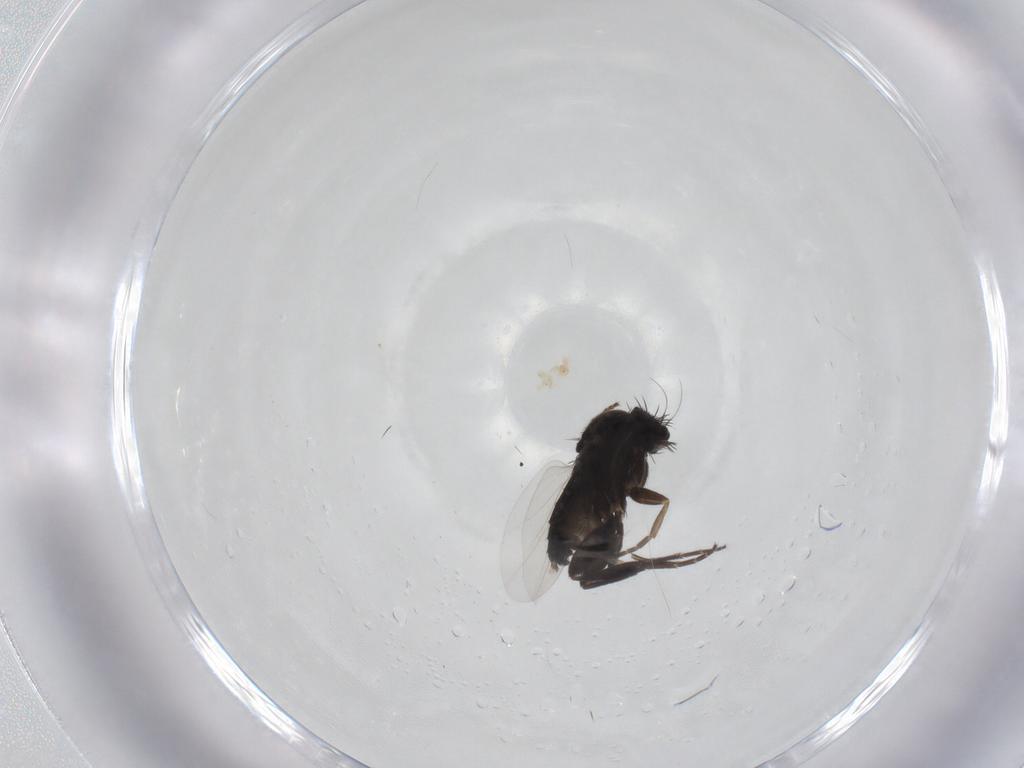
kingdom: Animalia
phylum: Arthropoda
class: Insecta
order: Diptera
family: Phoridae
